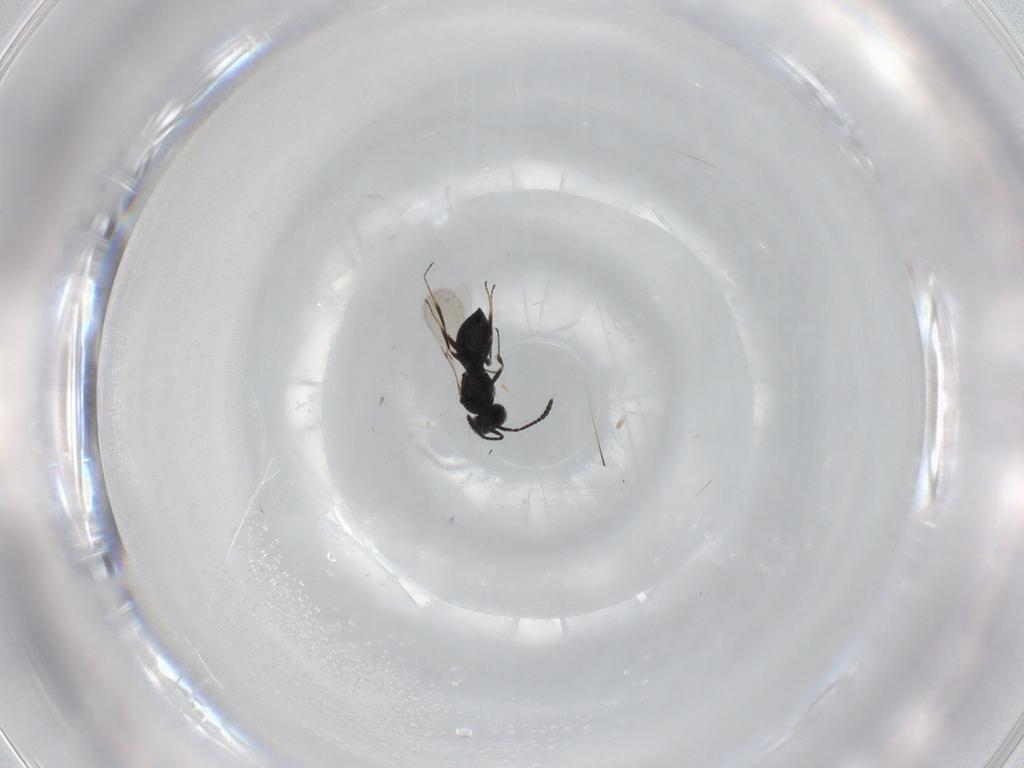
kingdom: Animalia
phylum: Arthropoda
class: Insecta
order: Hymenoptera
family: Scelionidae
